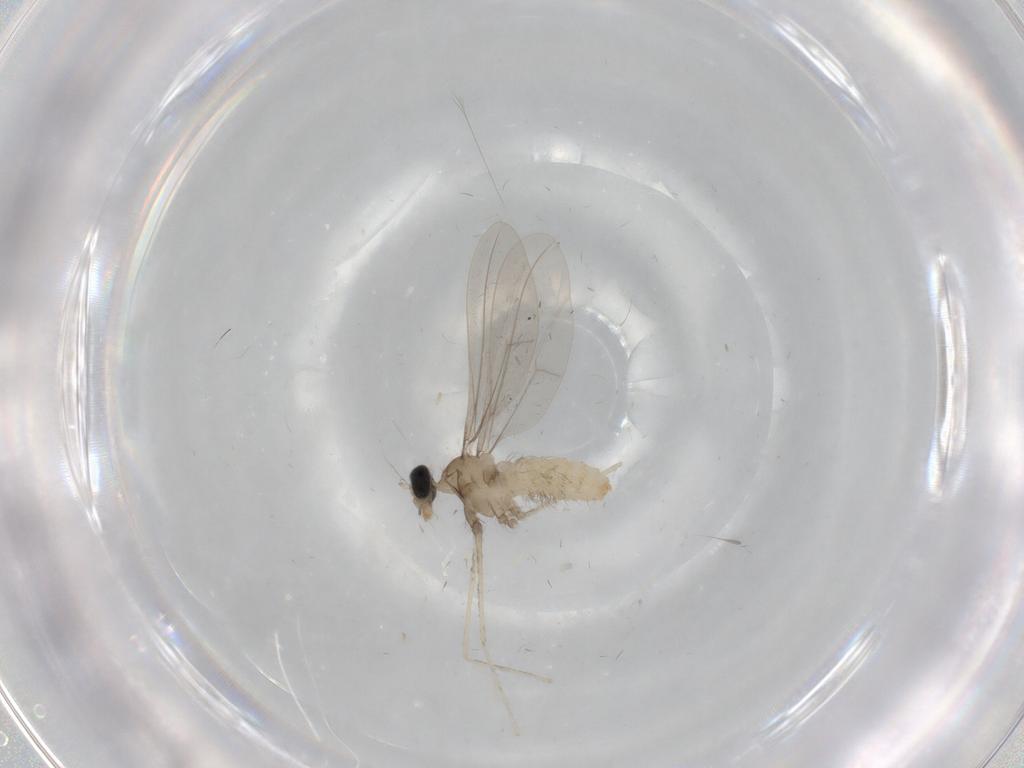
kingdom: Animalia
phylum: Arthropoda
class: Insecta
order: Diptera
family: Cecidomyiidae
